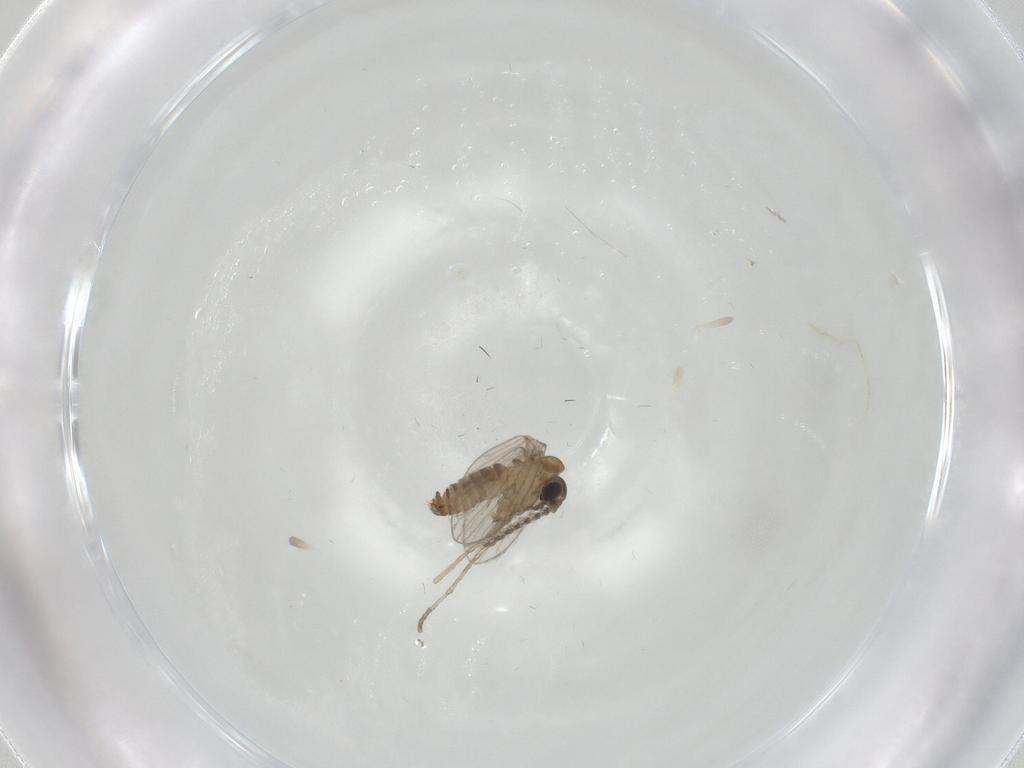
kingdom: Animalia
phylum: Arthropoda
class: Insecta
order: Diptera
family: Psychodidae
